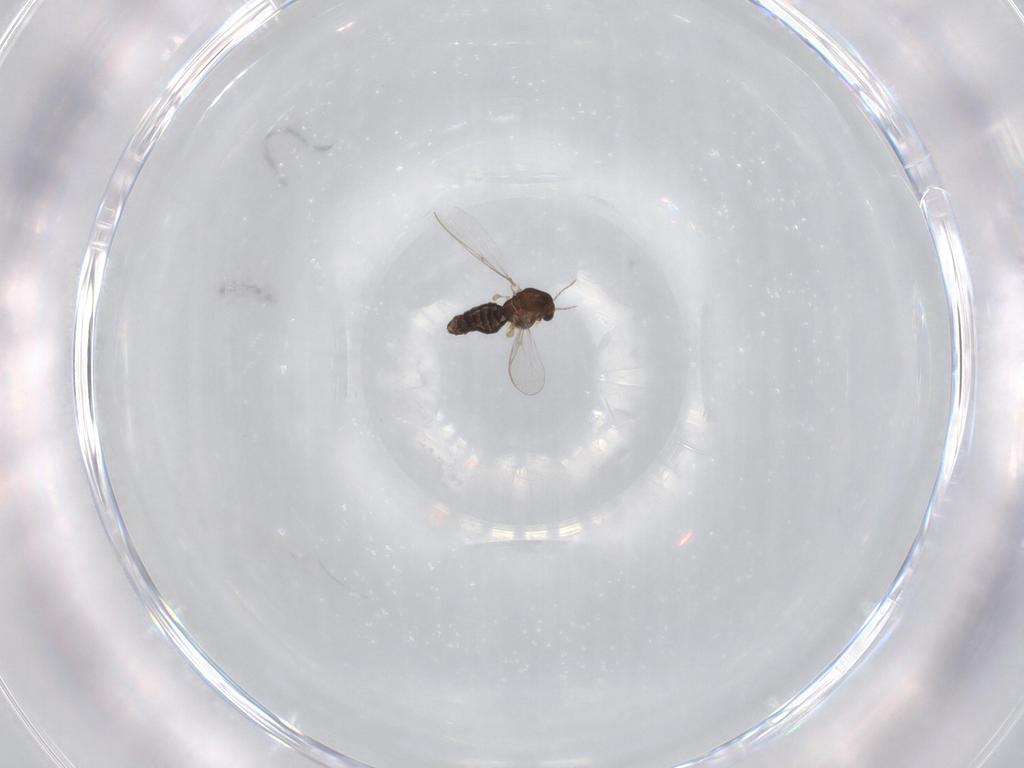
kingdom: Animalia
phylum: Arthropoda
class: Insecta
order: Diptera
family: Chironomidae
